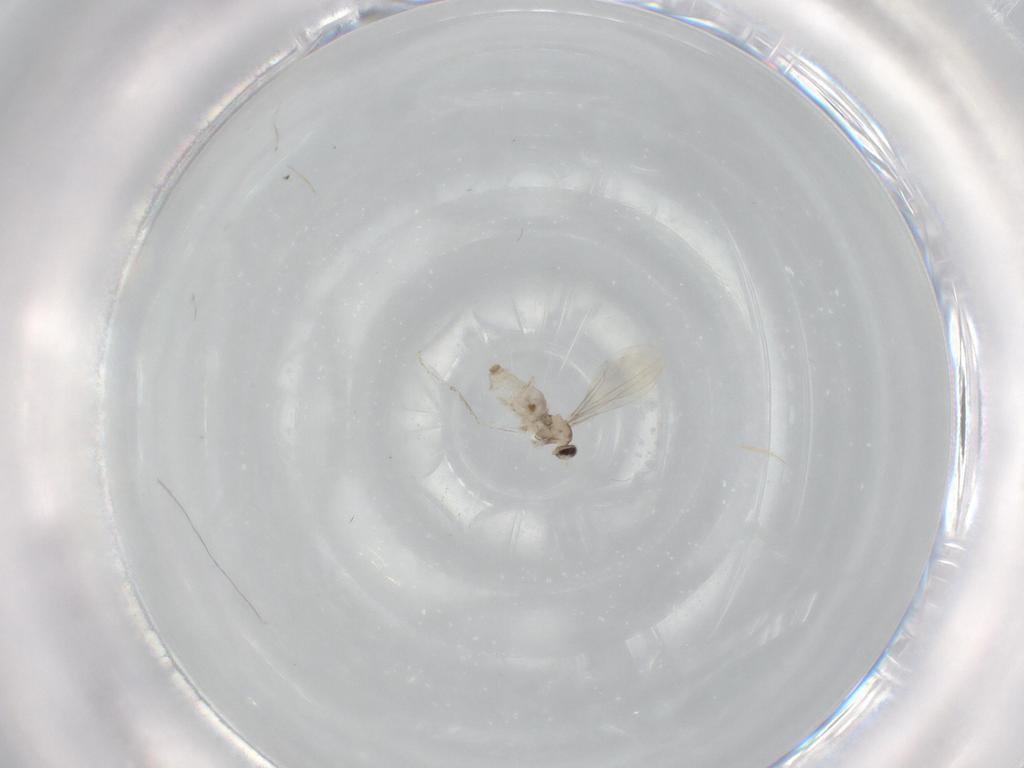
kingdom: Animalia
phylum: Arthropoda
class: Insecta
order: Diptera
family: Cecidomyiidae
